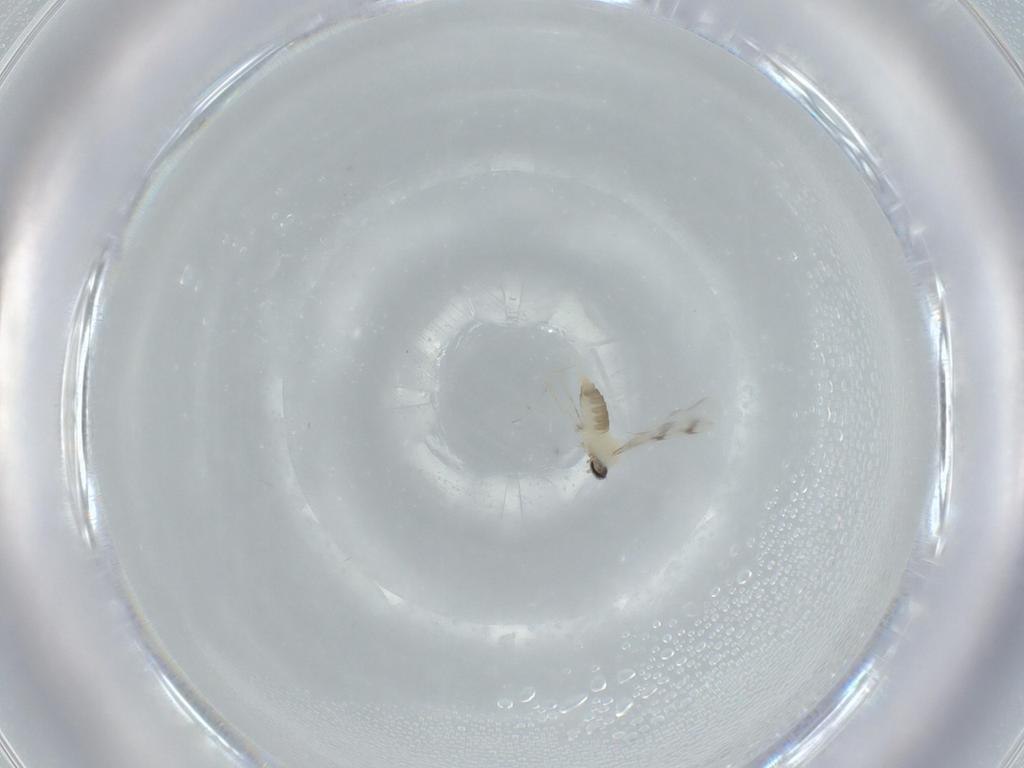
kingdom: Animalia
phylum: Arthropoda
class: Insecta
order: Diptera
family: Cecidomyiidae
